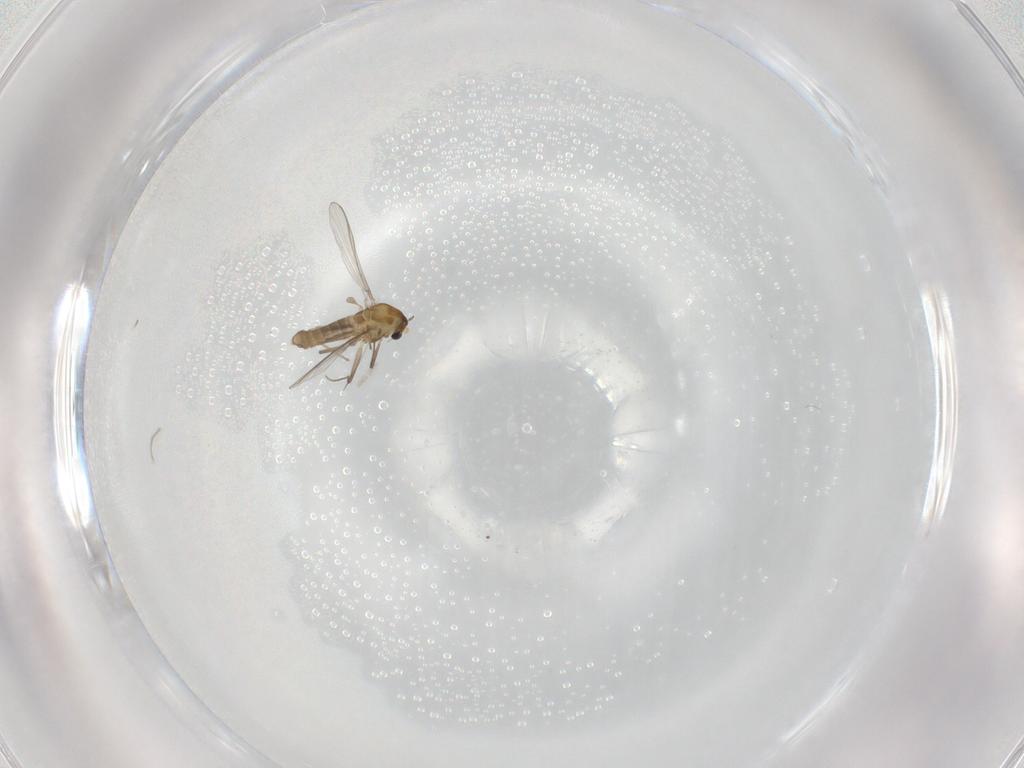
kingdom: Animalia
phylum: Arthropoda
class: Insecta
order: Diptera
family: Chironomidae
